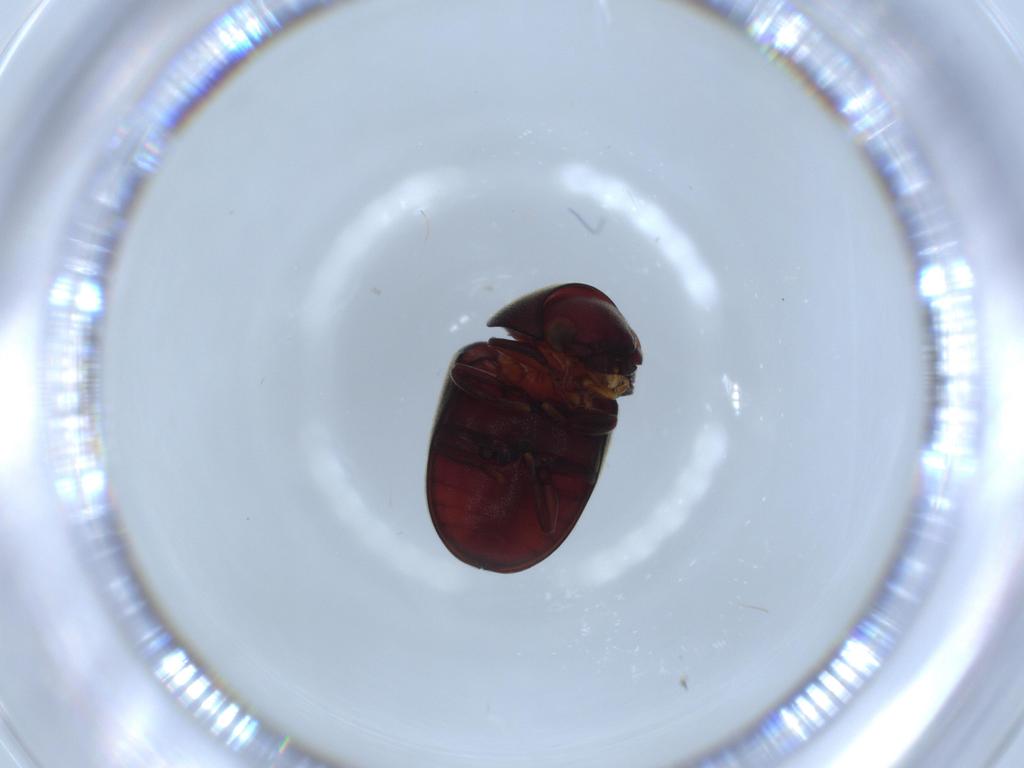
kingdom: Animalia
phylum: Arthropoda
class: Insecta
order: Coleoptera
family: Ptinidae
